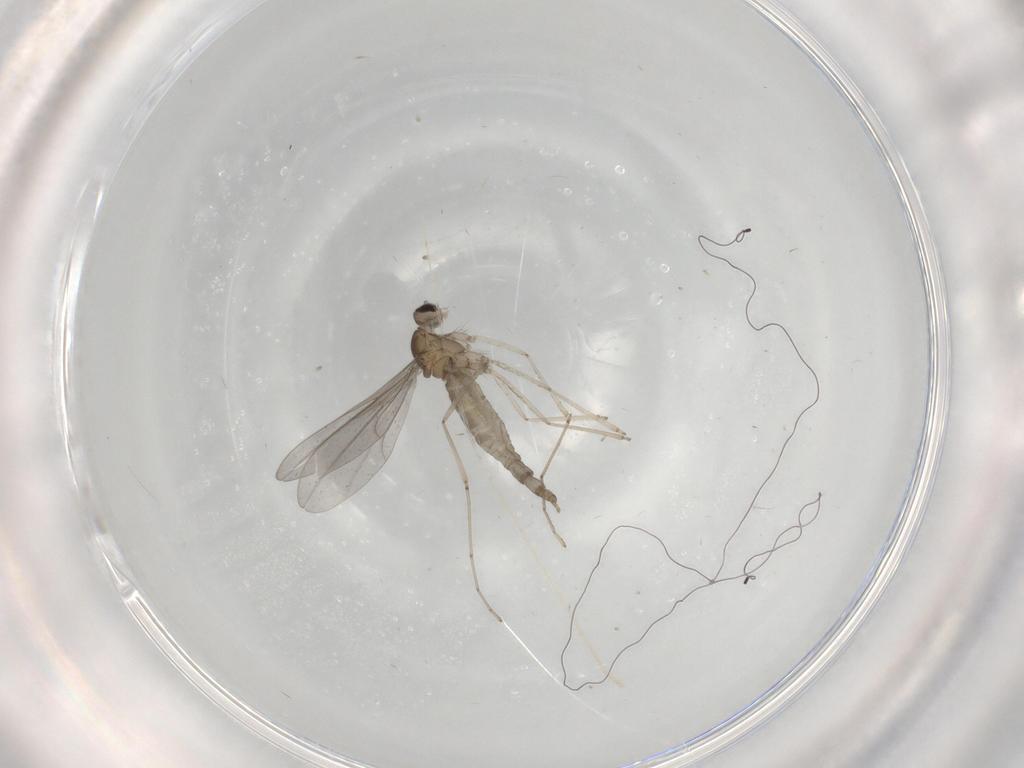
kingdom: Animalia
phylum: Arthropoda
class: Insecta
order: Diptera
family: Cecidomyiidae
